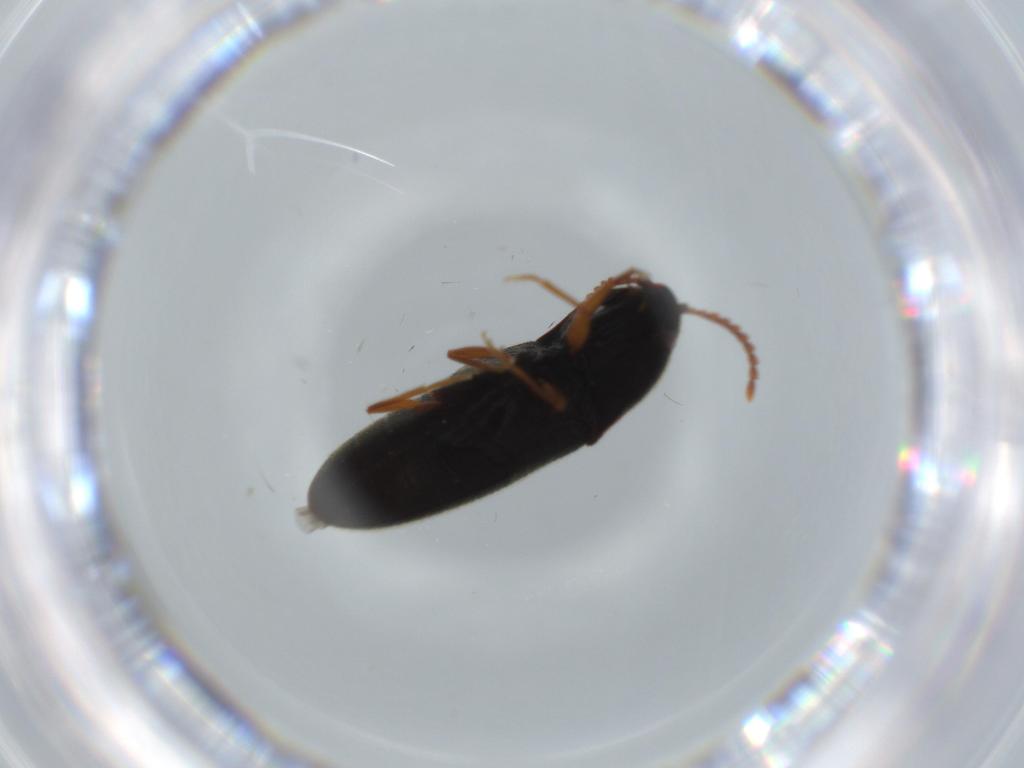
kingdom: Animalia
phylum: Arthropoda
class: Insecta
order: Coleoptera
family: Elateridae
